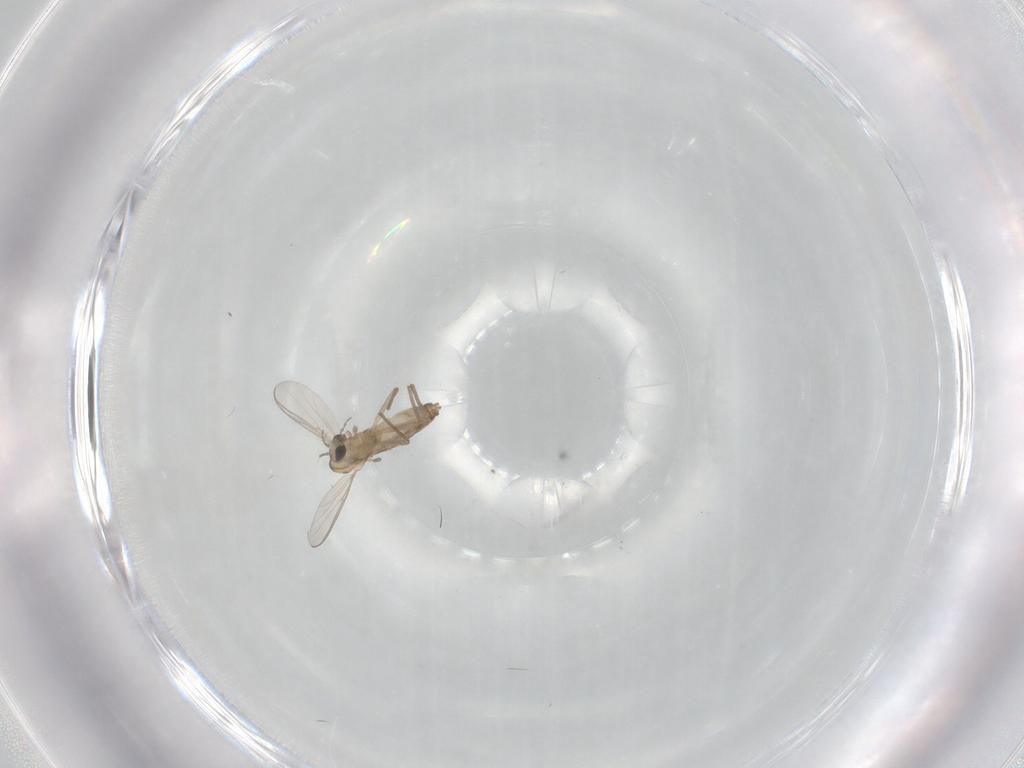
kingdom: Animalia
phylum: Arthropoda
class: Insecta
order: Diptera
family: Chironomidae
